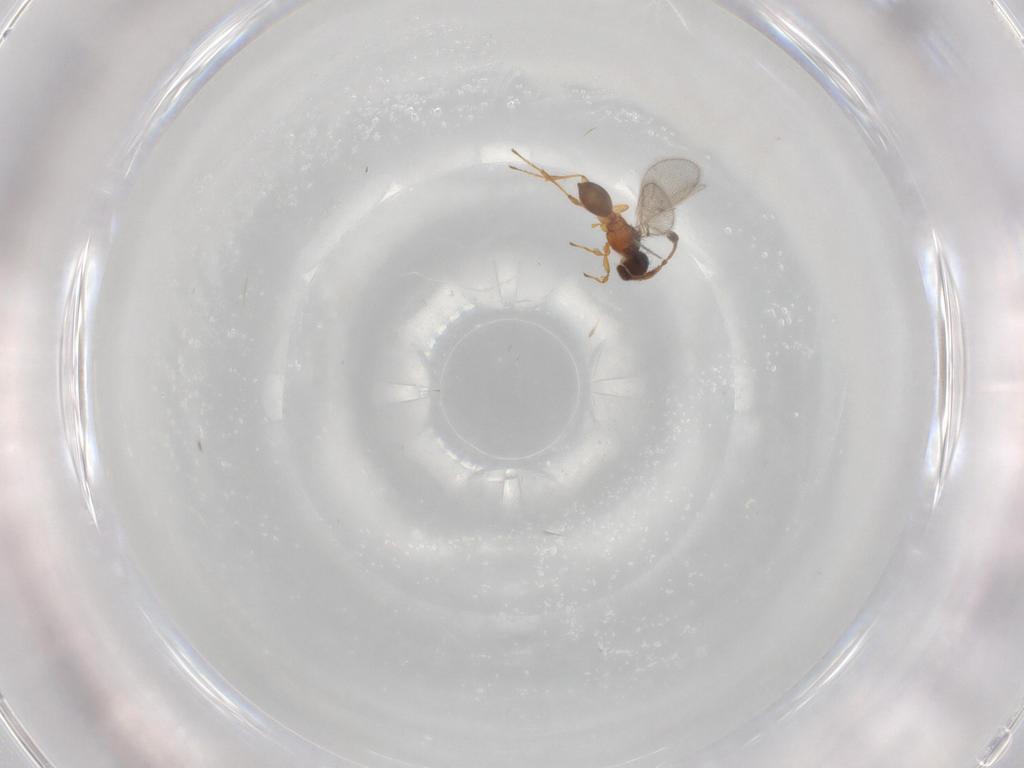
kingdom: Animalia
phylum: Arthropoda
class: Insecta
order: Hymenoptera
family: Diapriidae
